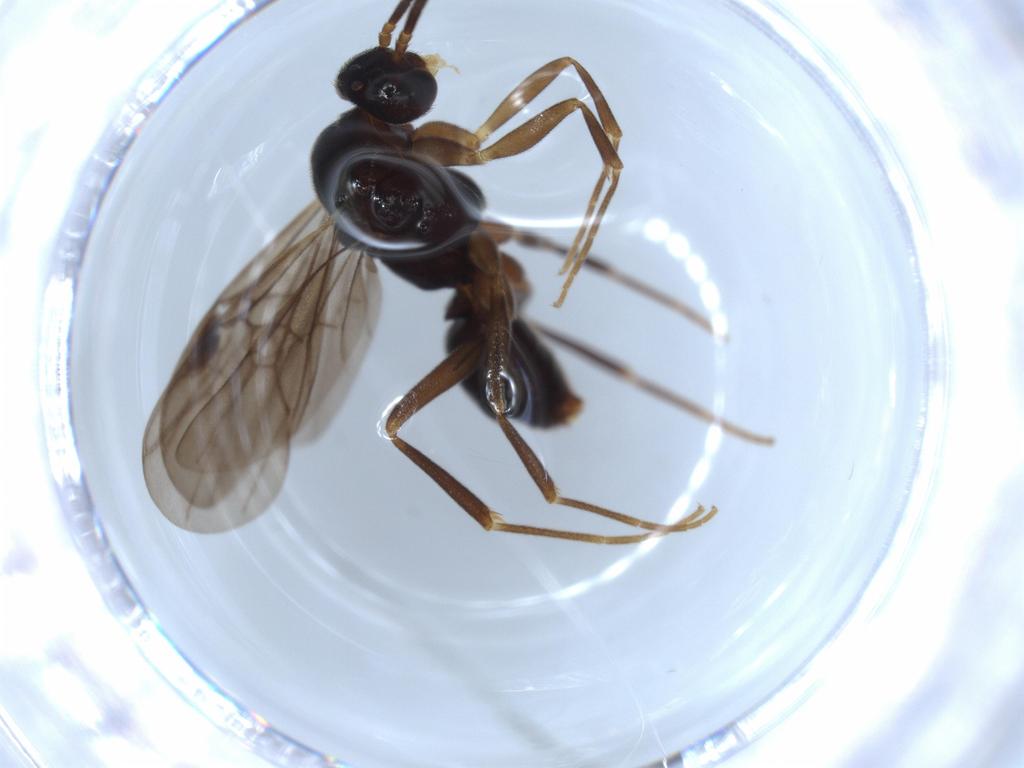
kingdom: Animalia
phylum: Arthropoda
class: Insecta
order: Hymenoptera
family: Formicidae
